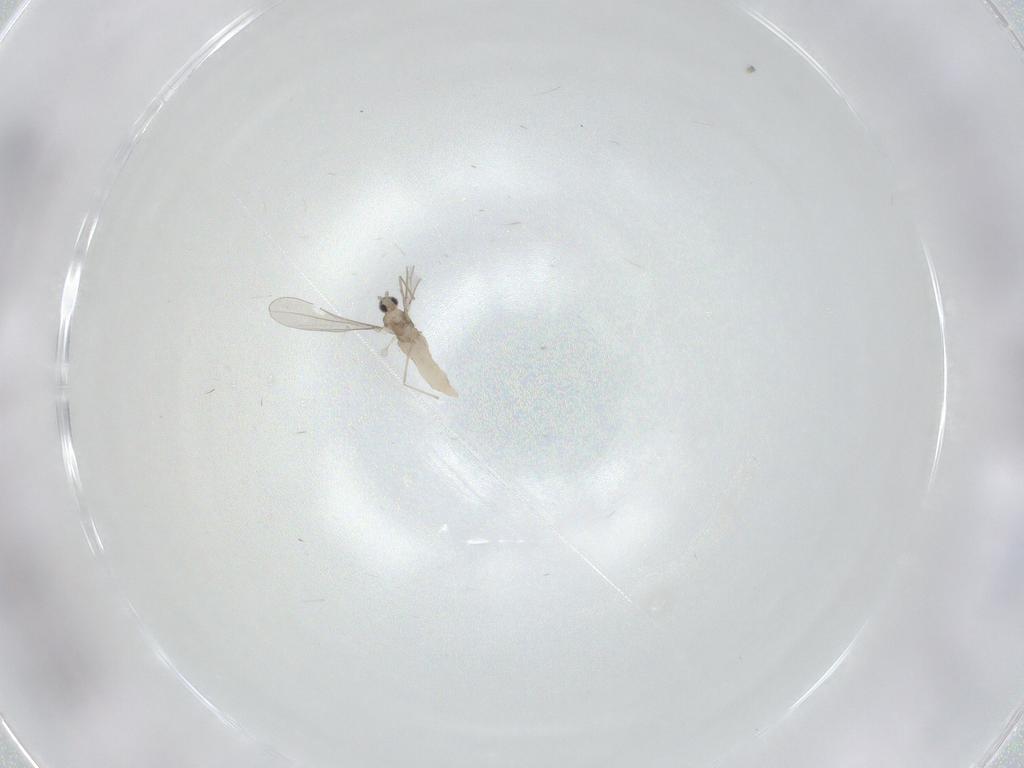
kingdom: Animalia
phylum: Arthropoda
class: Insecta
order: Diptera
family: Cecidomyiidae
